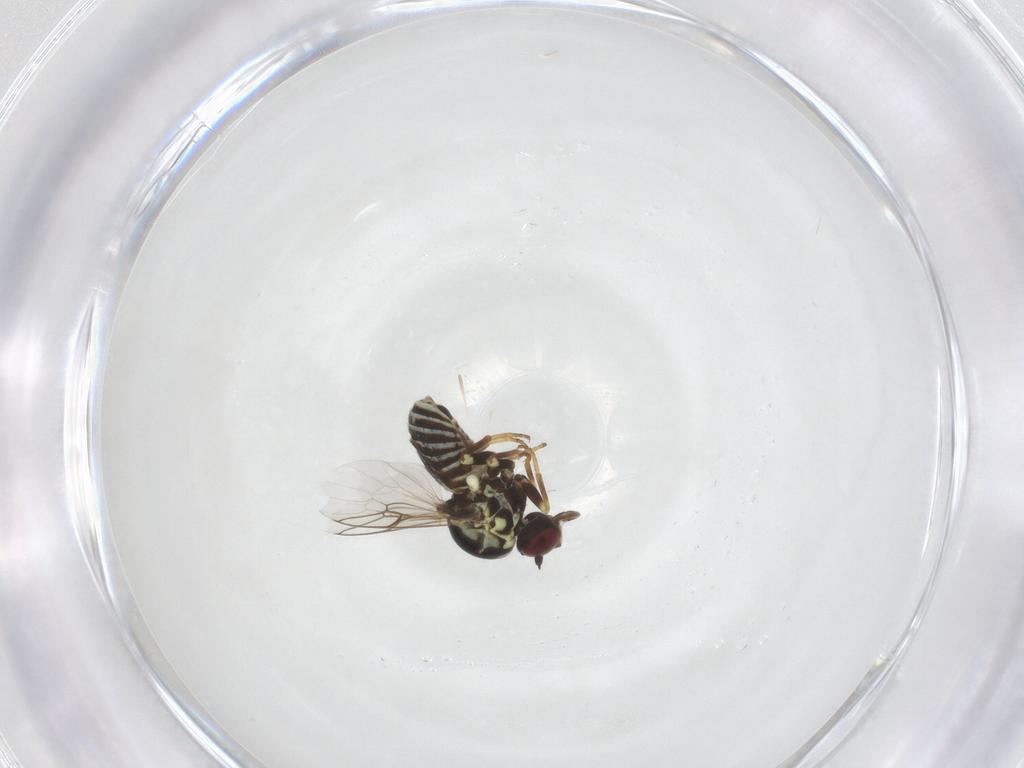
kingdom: Animalia
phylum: Arthropoda
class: Insecta
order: Diptera
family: Mythicomyiidae
